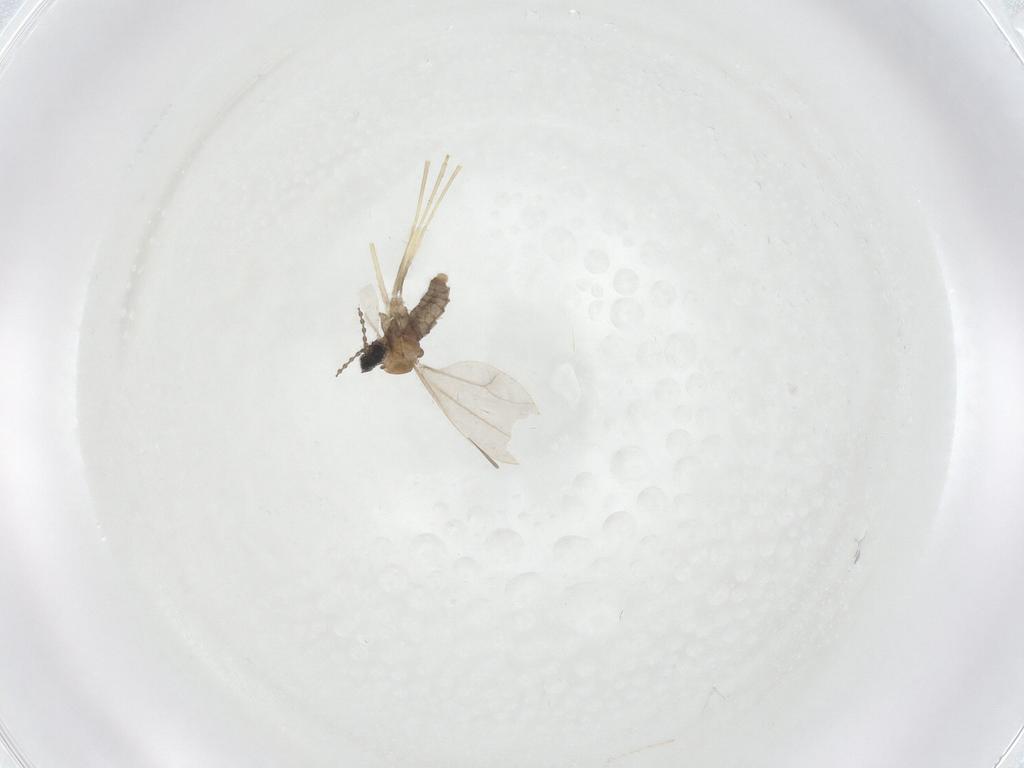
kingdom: Animalia
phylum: Arthropoda
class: Insecta
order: Diptera
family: Cecidomyiidae
